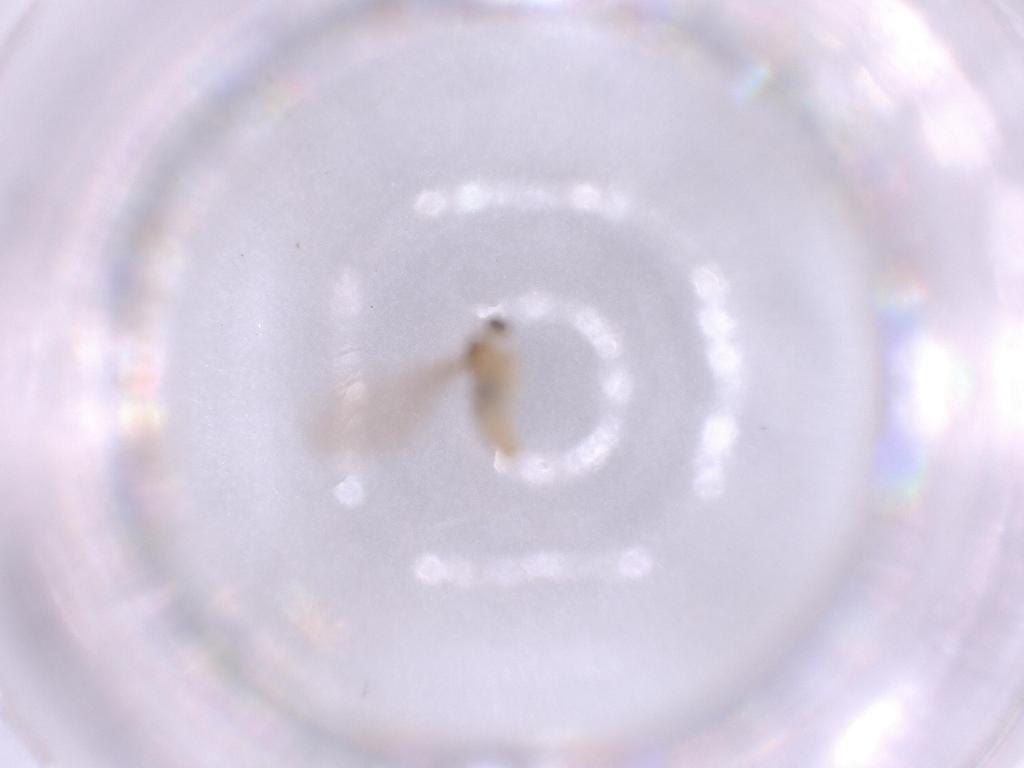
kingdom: Animalia
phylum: Arthropoda
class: Insecta
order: Diptera
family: Cecidomyiidae
